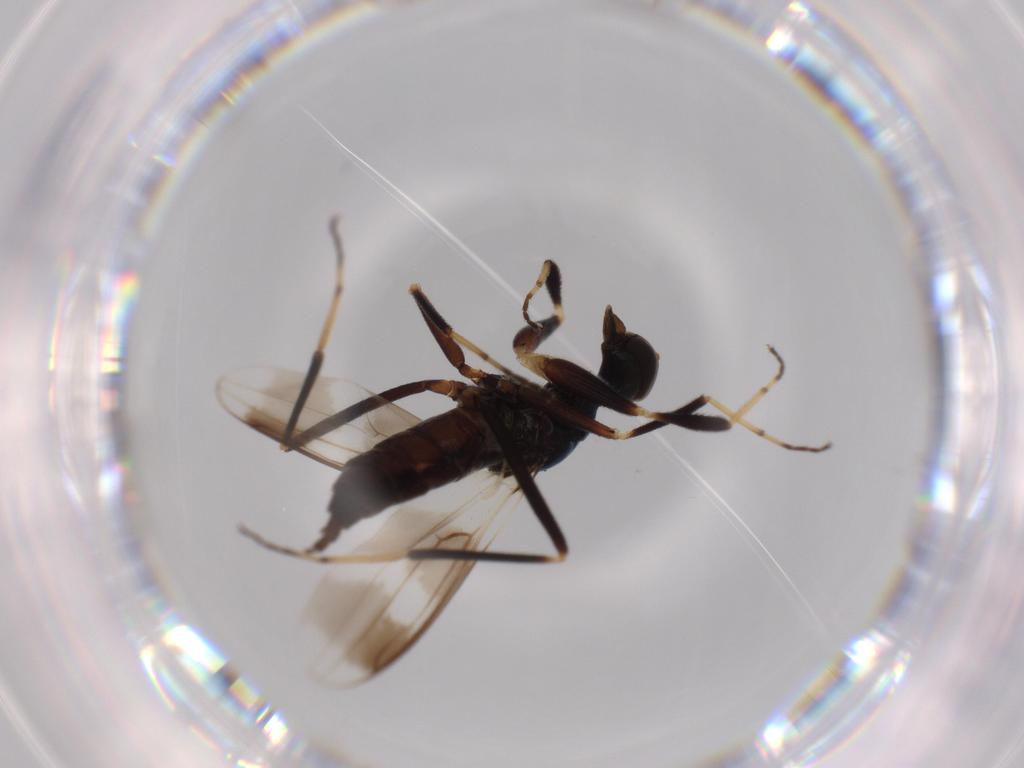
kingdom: Animalia
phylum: Arthropoda
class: Insecta
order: Diptera
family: Hybotidae
